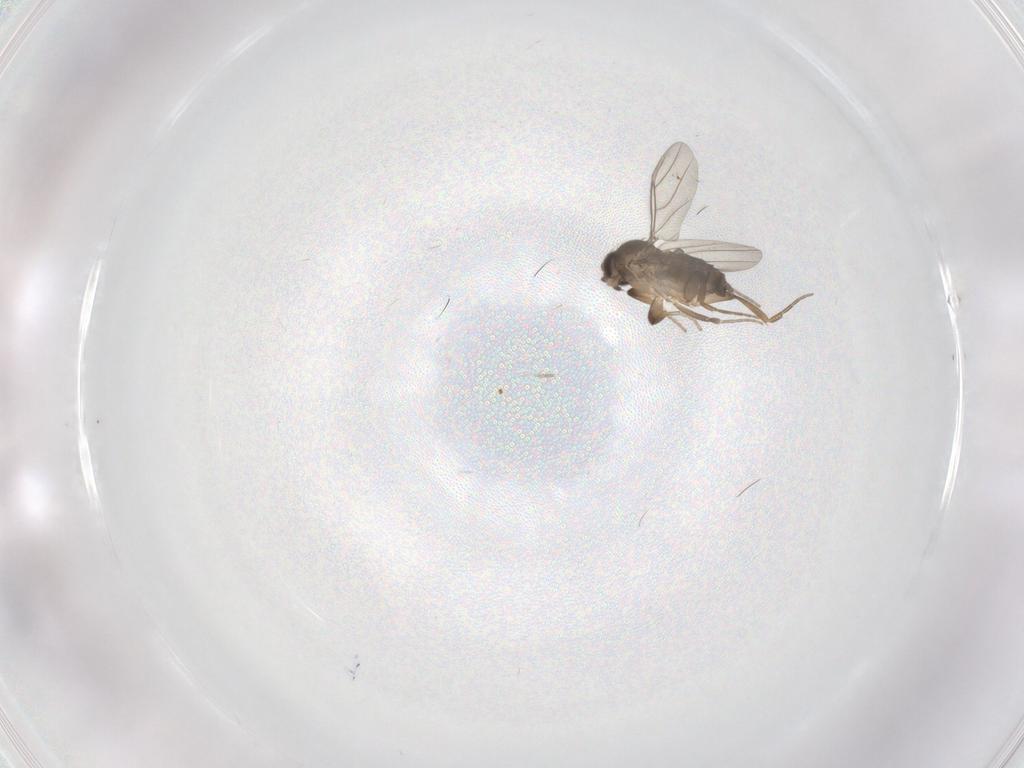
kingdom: Animalia
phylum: Arthropoda
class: Insecta
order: Diptera
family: Phoridae
